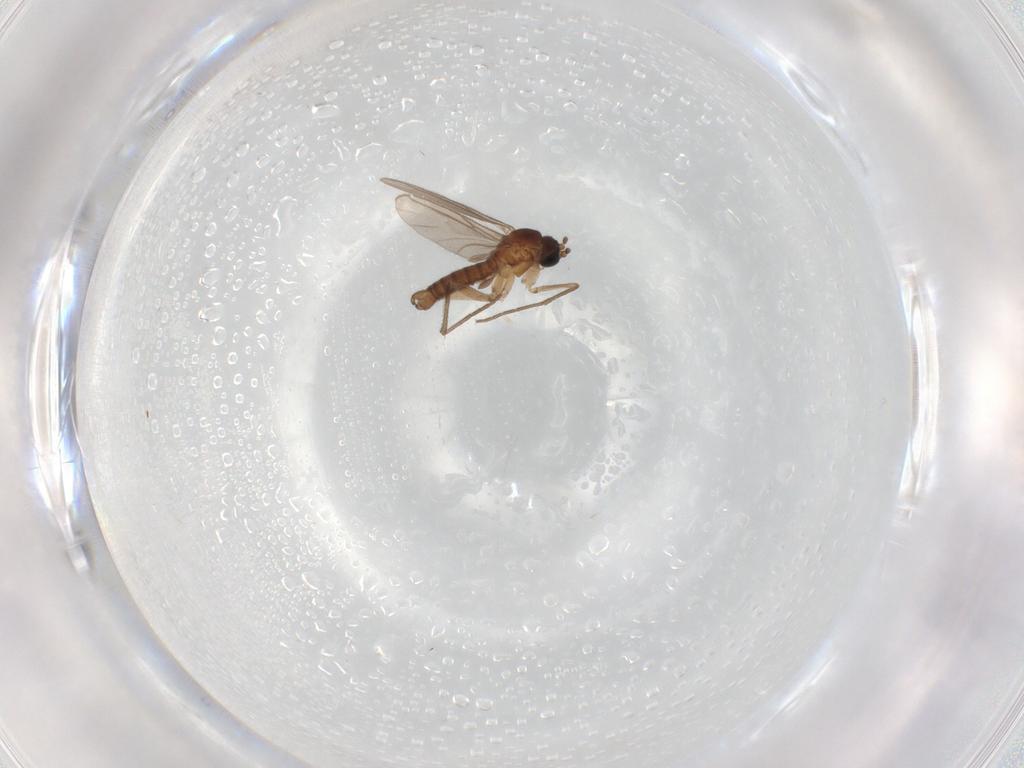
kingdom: Animalia
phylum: Arthropoda
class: Insecta
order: Diptera
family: Sciaridae
